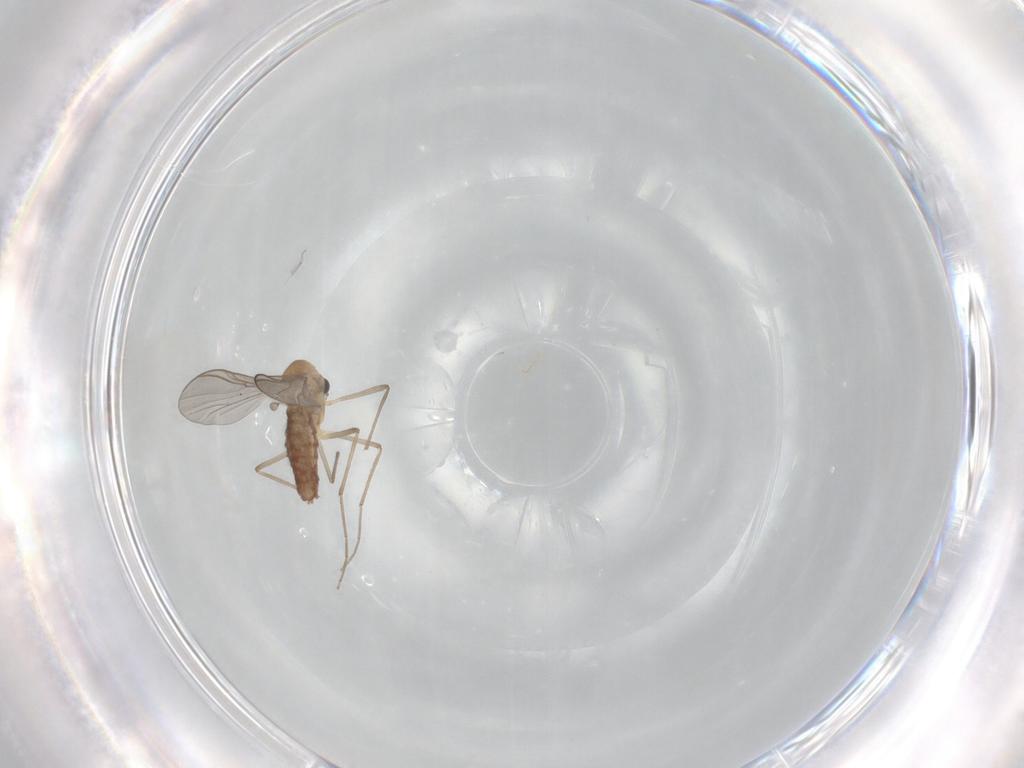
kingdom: Animalia
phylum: Arthropoda
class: Insecta
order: Diptera
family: Chironomidae
